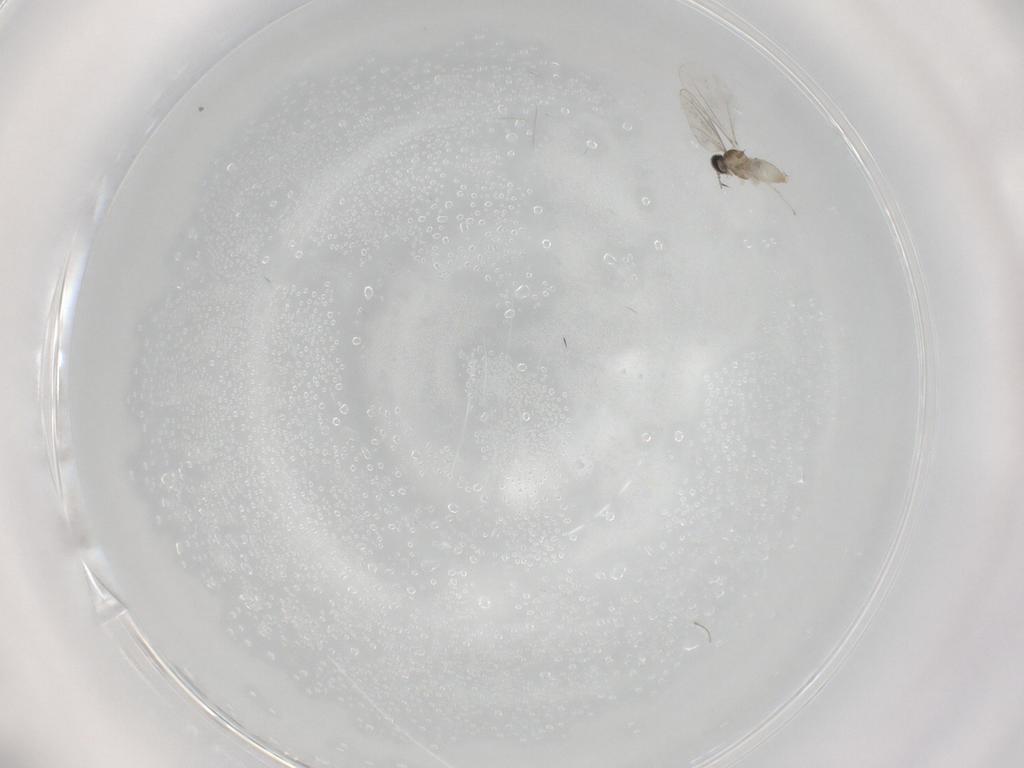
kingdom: Animalia
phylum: Arthropoda
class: Insecta
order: Diptera
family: Cecidomyiidae
